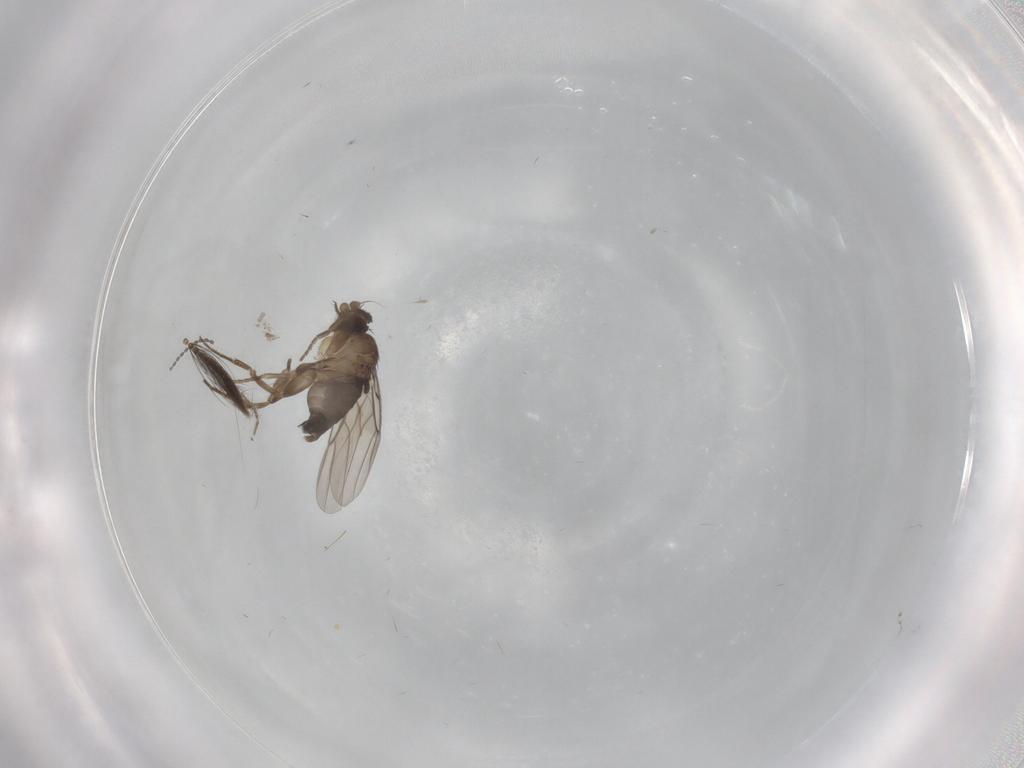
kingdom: Animalia
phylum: Arthropoda
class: Insecta
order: Diptera
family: Cecidomyiidae
